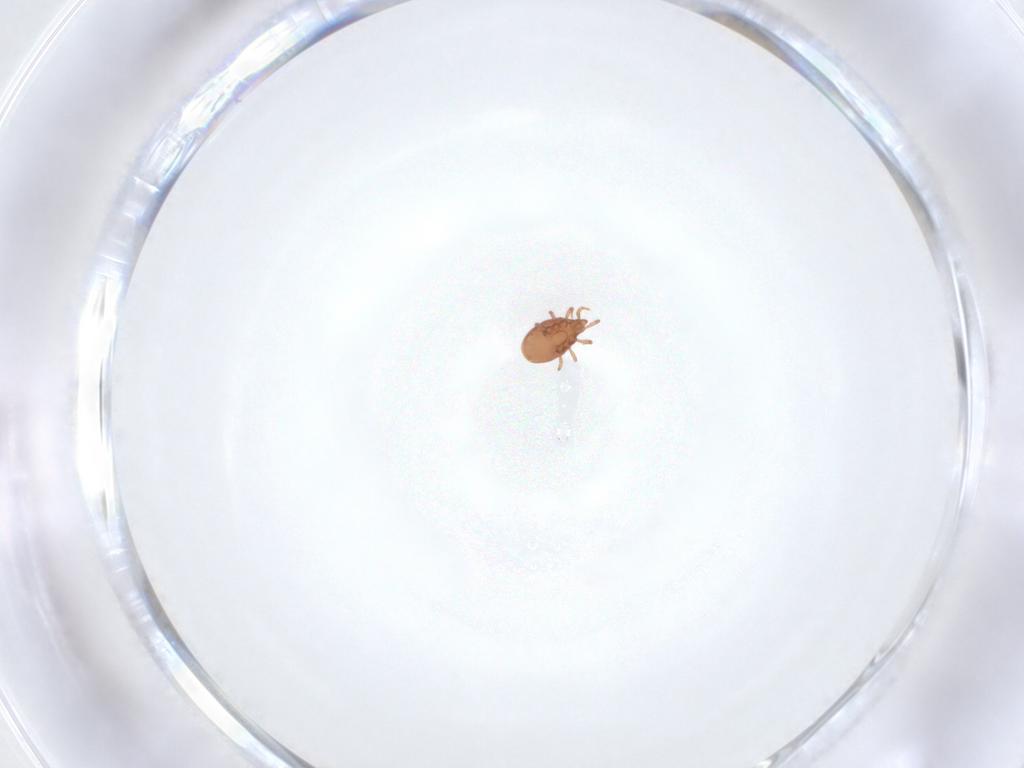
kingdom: Animalia
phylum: Arthropoda
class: Arachnida
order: Mesostigmata
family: Dinychidae
